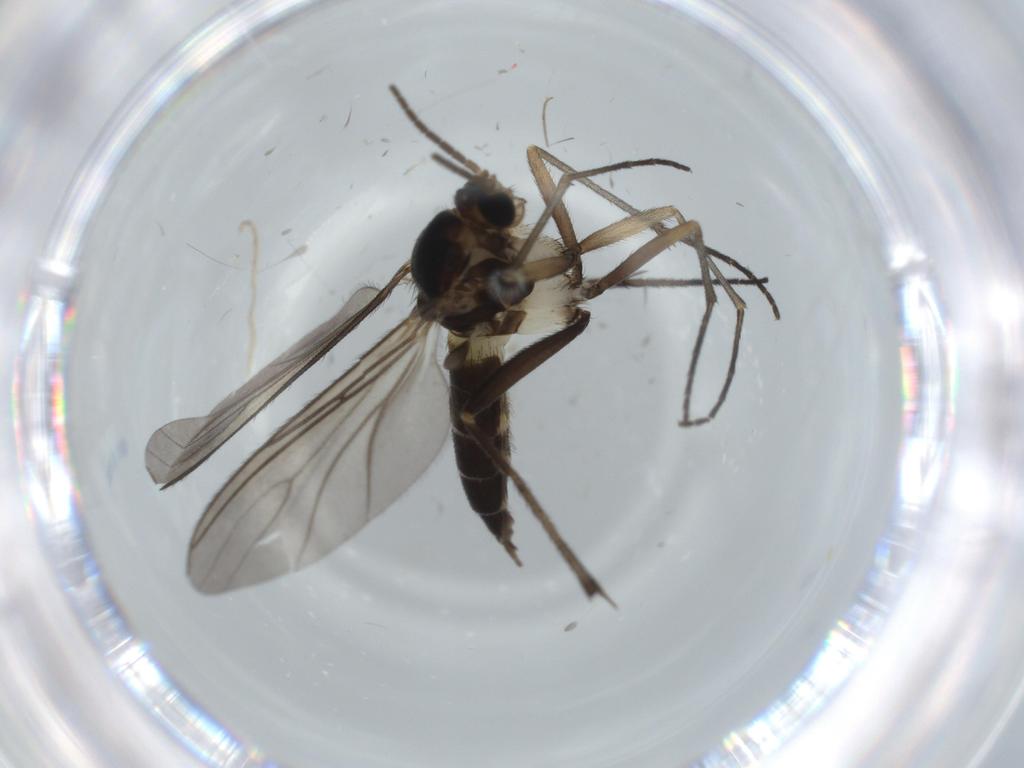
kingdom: Animalia
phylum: Arthropoda
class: Insecta
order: Diptera
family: Sciaridae
